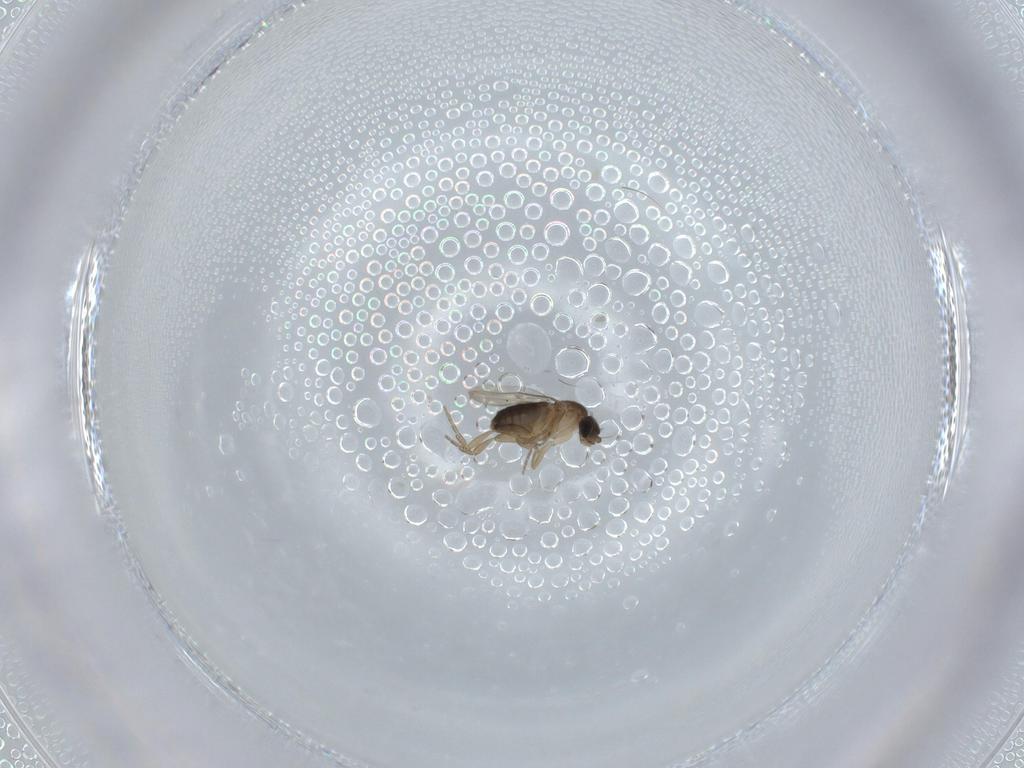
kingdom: Animalia
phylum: Arthropoda
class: Insecta
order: Diptera
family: Phoridae
